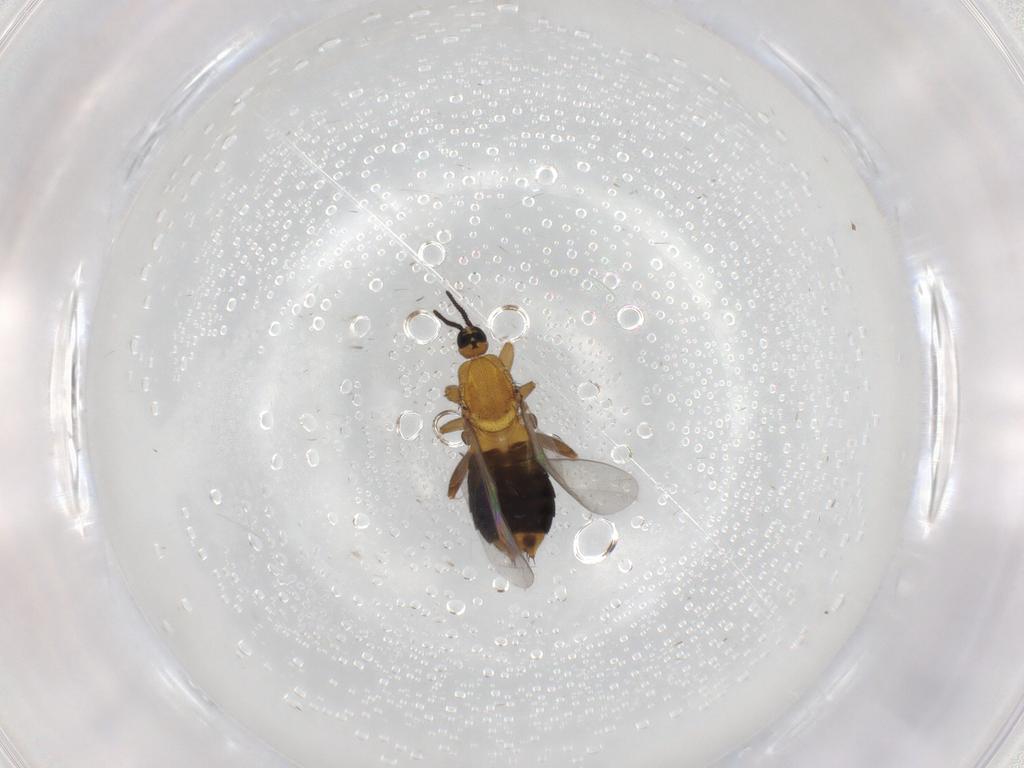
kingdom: Animalia
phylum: Arthropoda
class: Insecta
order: Diptera
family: Scatopsidae
